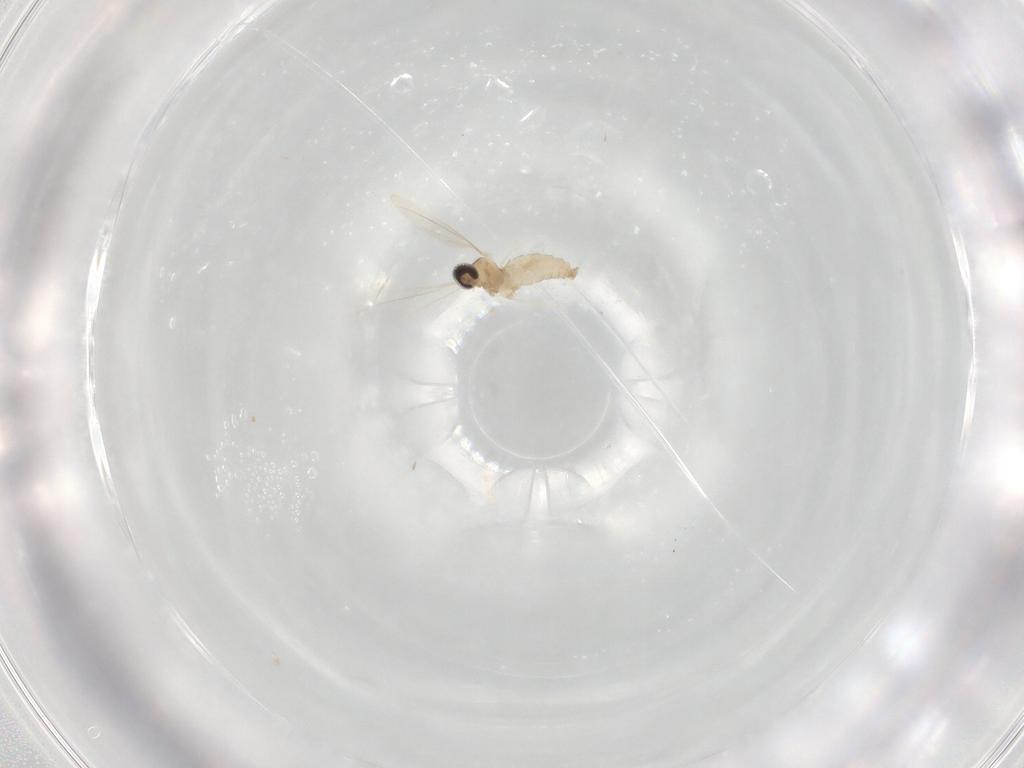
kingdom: Animalia
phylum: Arthropoda
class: Insecta
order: Diptera
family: Cecidomyiidae
